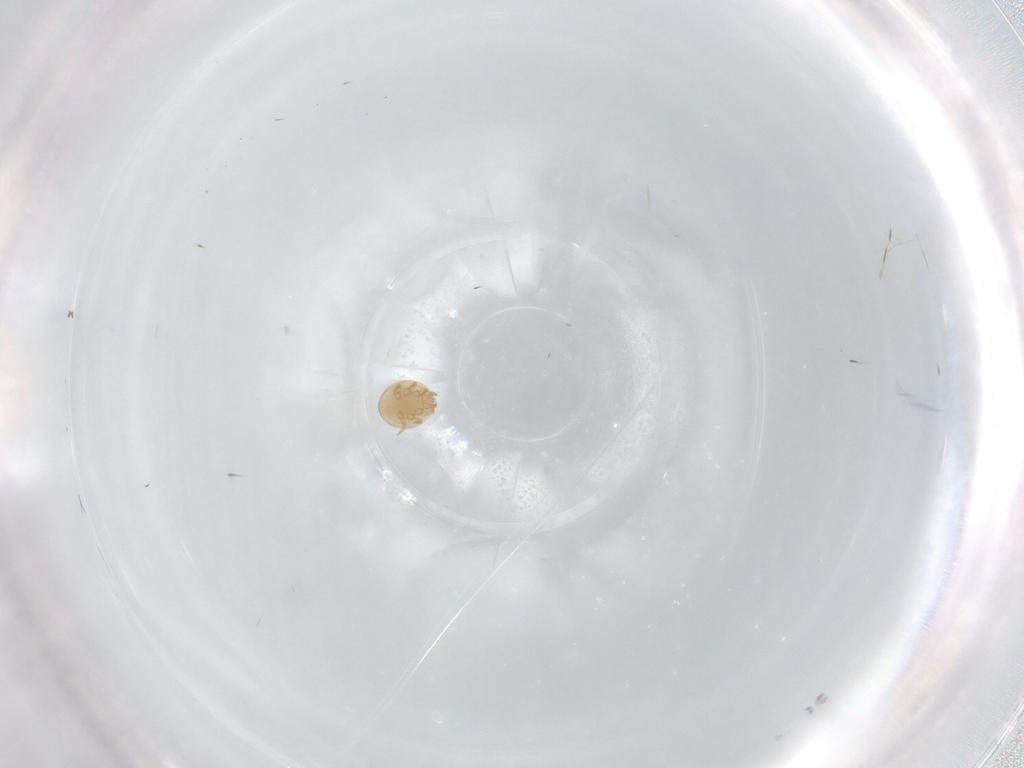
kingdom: Animalia
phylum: Arthropoda
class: Arachnida
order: Mesostigmata
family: Trematuridae
